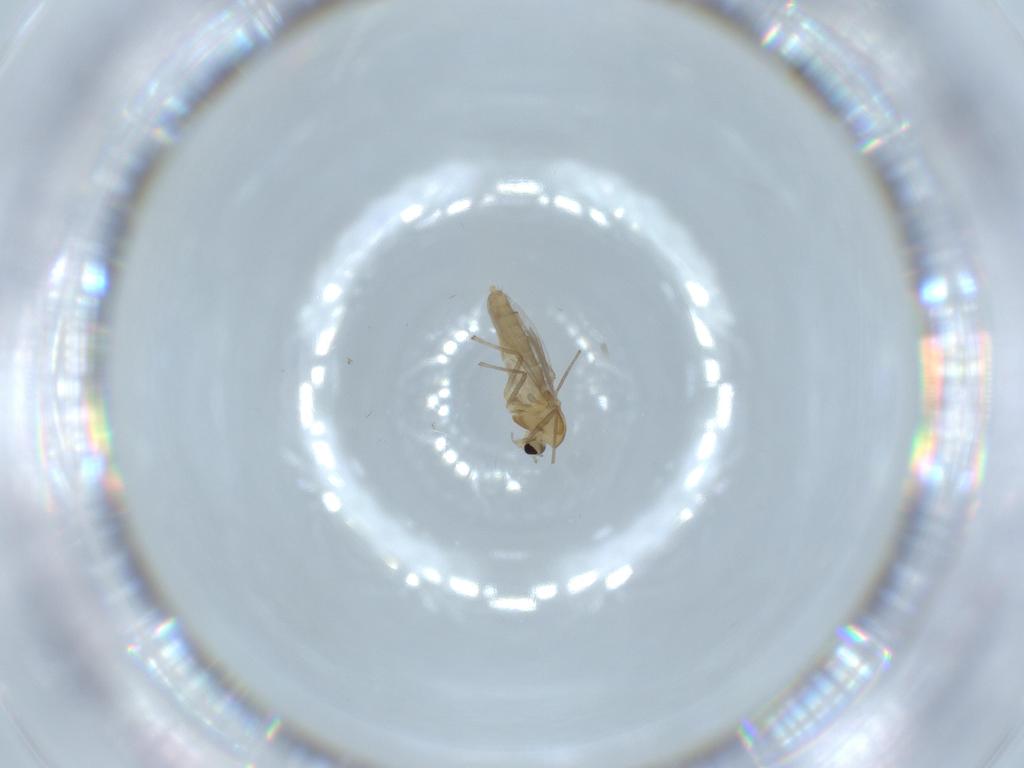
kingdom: Animalia
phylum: Arthropoda
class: Insecta
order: Diptera
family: Chironomidae
